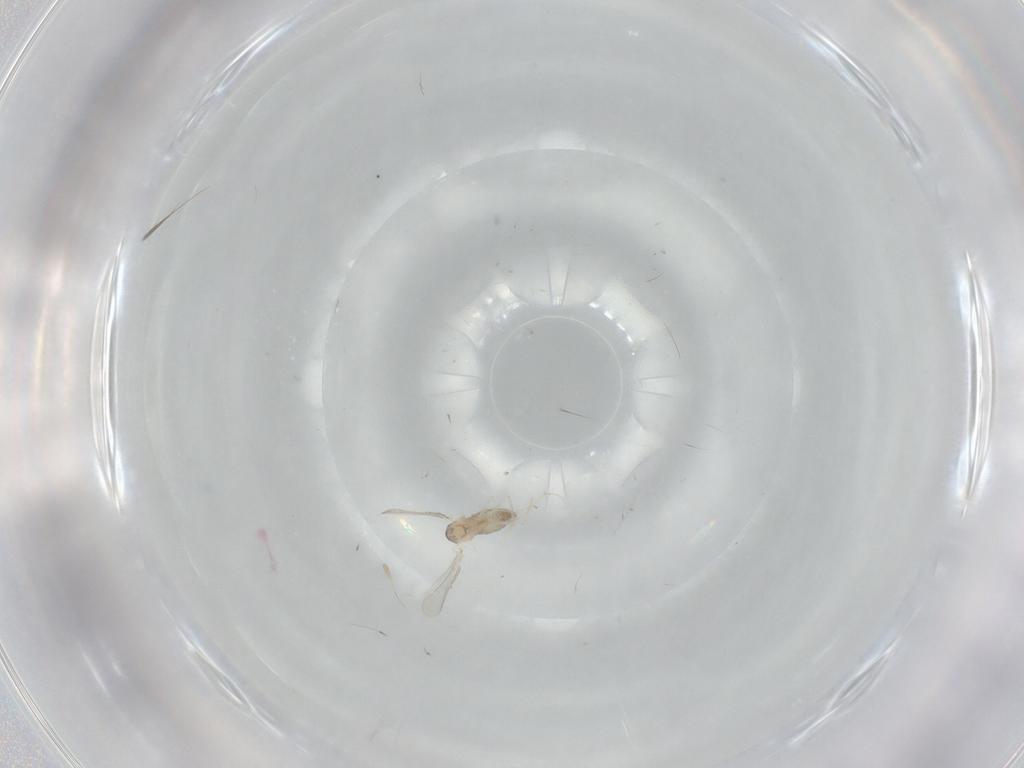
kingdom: Animalia
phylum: Arthropoda
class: Insecta
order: Diptera
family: Cecidomyiidae
